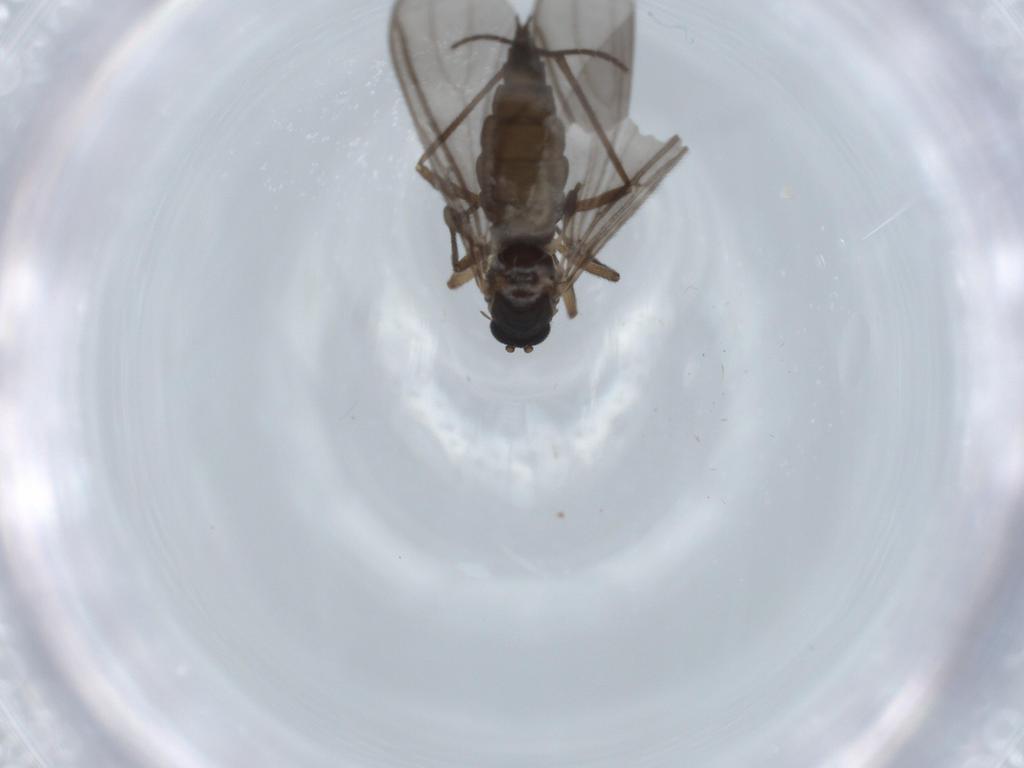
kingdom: Animalia
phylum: Arthropoda
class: Insecta
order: Diptera
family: Sciaridae
